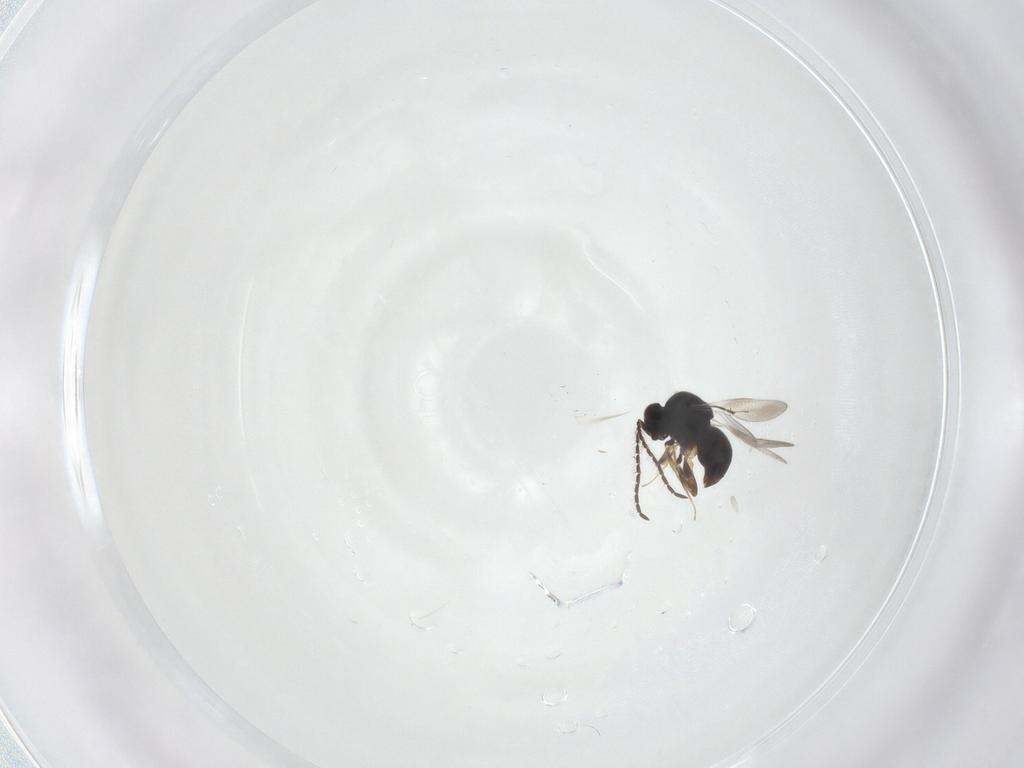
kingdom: Animalia
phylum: Arthropoda
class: Insecta
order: Hymenoptera
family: Ceraphronidae
